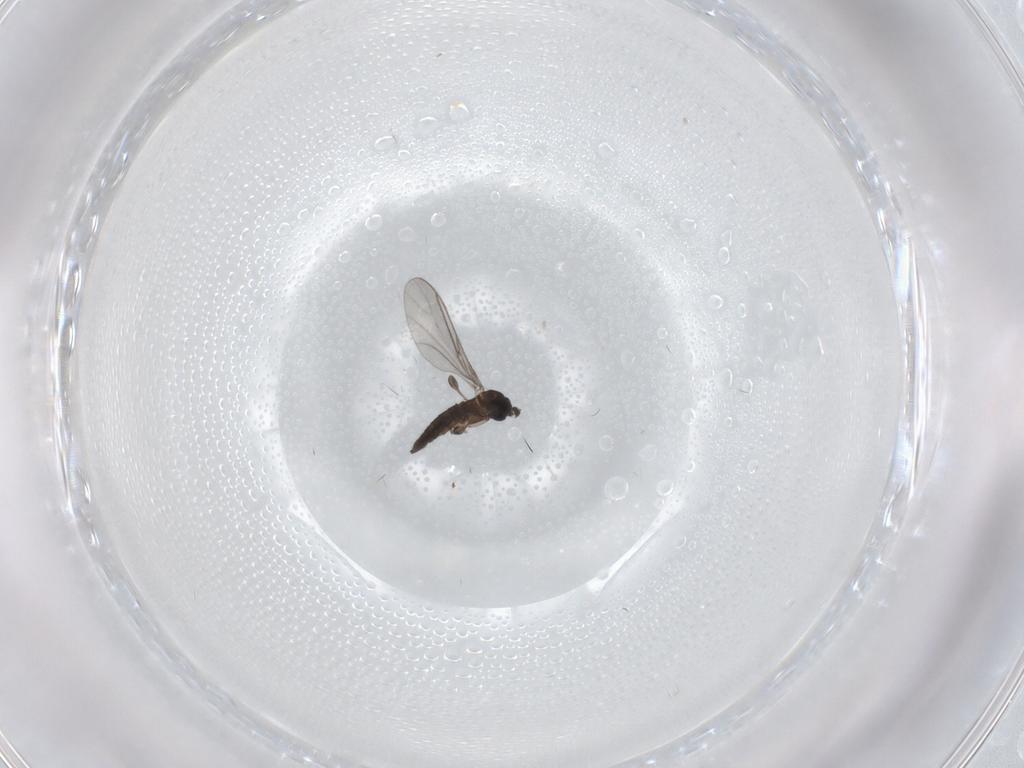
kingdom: Animalia
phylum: Arthropoda
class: Insecta
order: Diptera
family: Sciaridae
